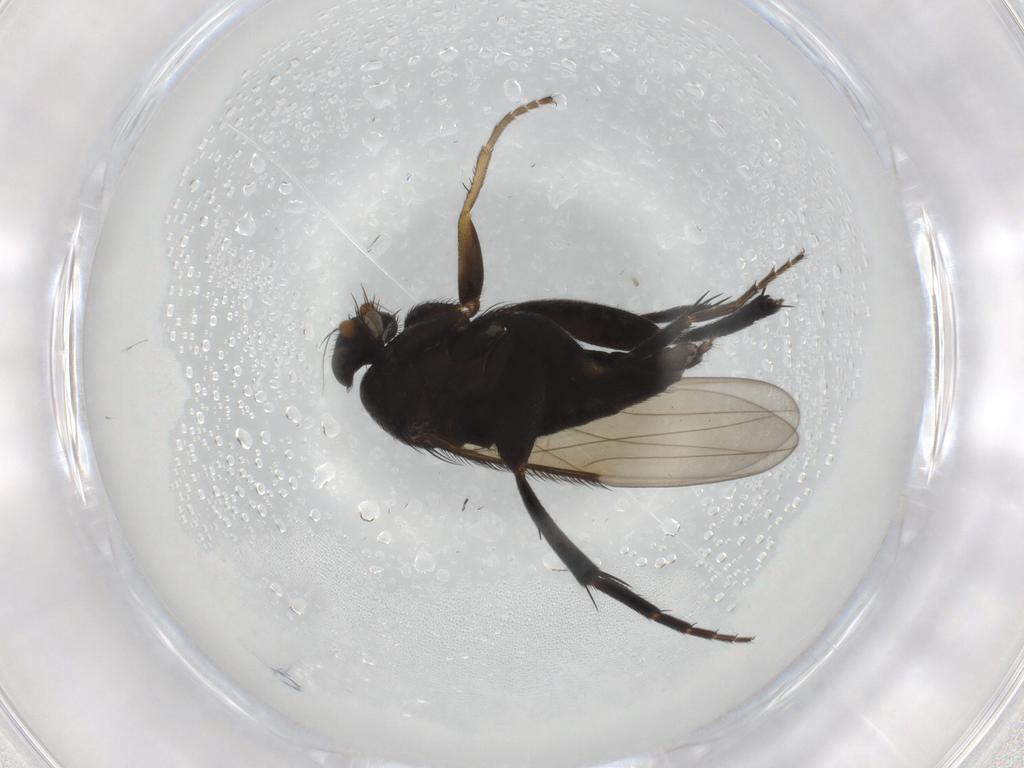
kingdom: Animalia
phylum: Arthropoda
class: Insecta
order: Diptera
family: Phoridae
